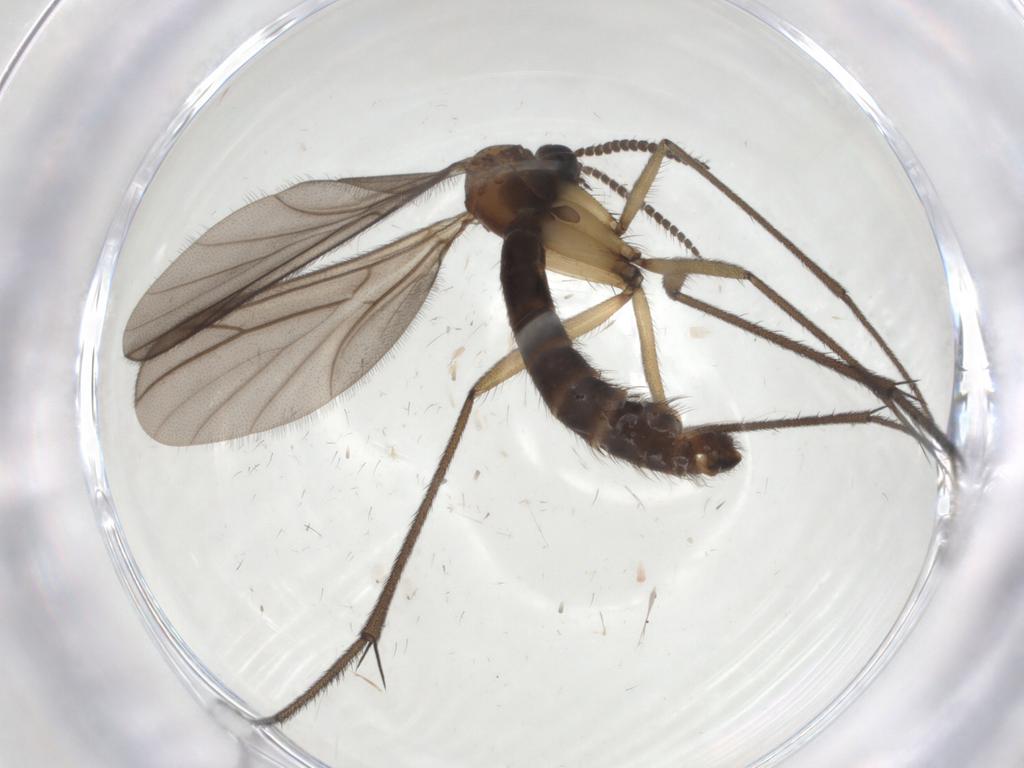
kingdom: Animalia
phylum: Arthropoda
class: Insecta
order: Diptera
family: Ditomyiidae
